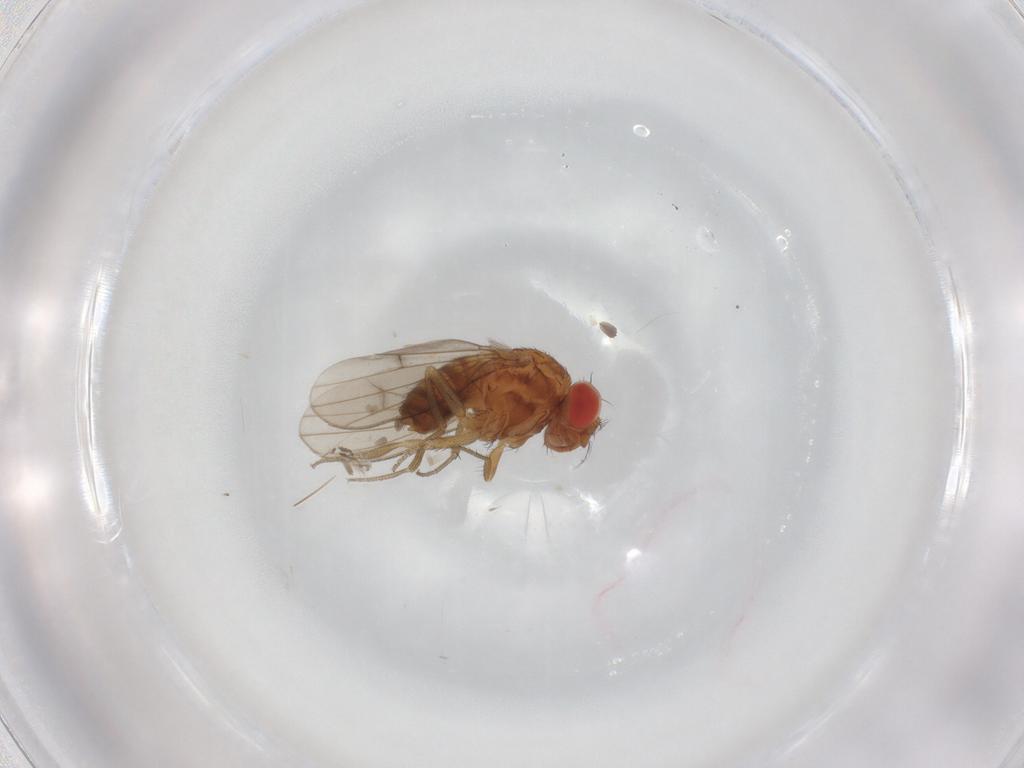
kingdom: Animalia
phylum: Arthropoda
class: Insecta
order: Diptera
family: Drosophilidae
